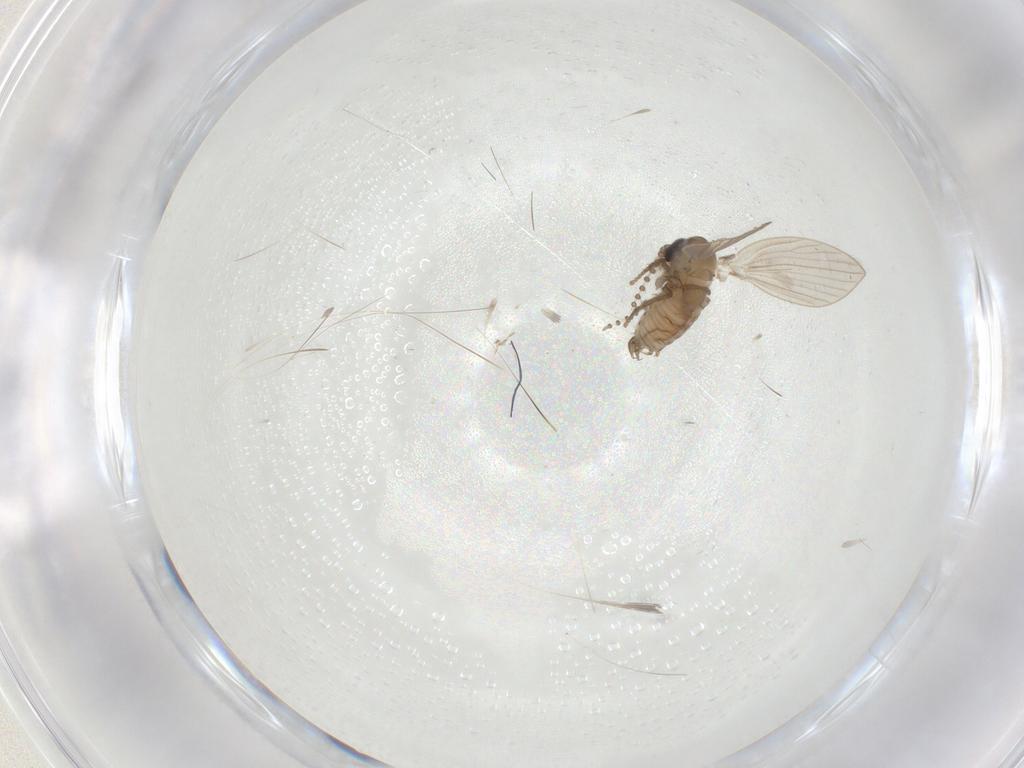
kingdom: Animalia
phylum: Arthropoda
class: Insecta
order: Diptera
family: Psychodidae
